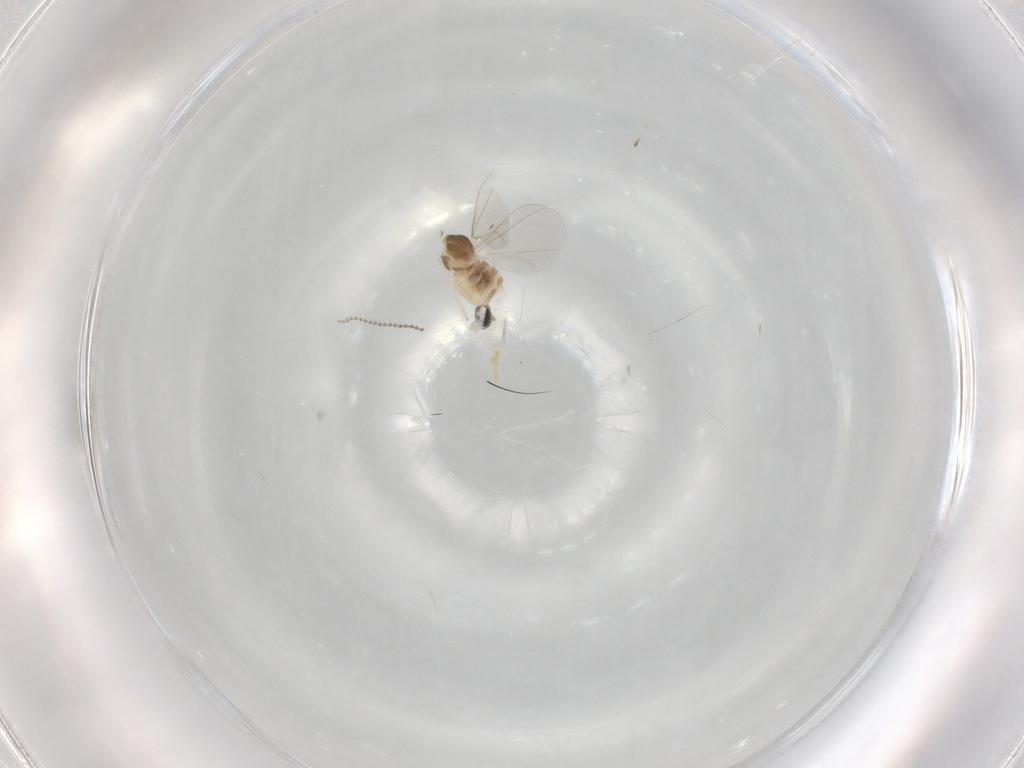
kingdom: Animalia
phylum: Arthropoda
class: Insecta
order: Diptera
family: Cecidomyiidae
